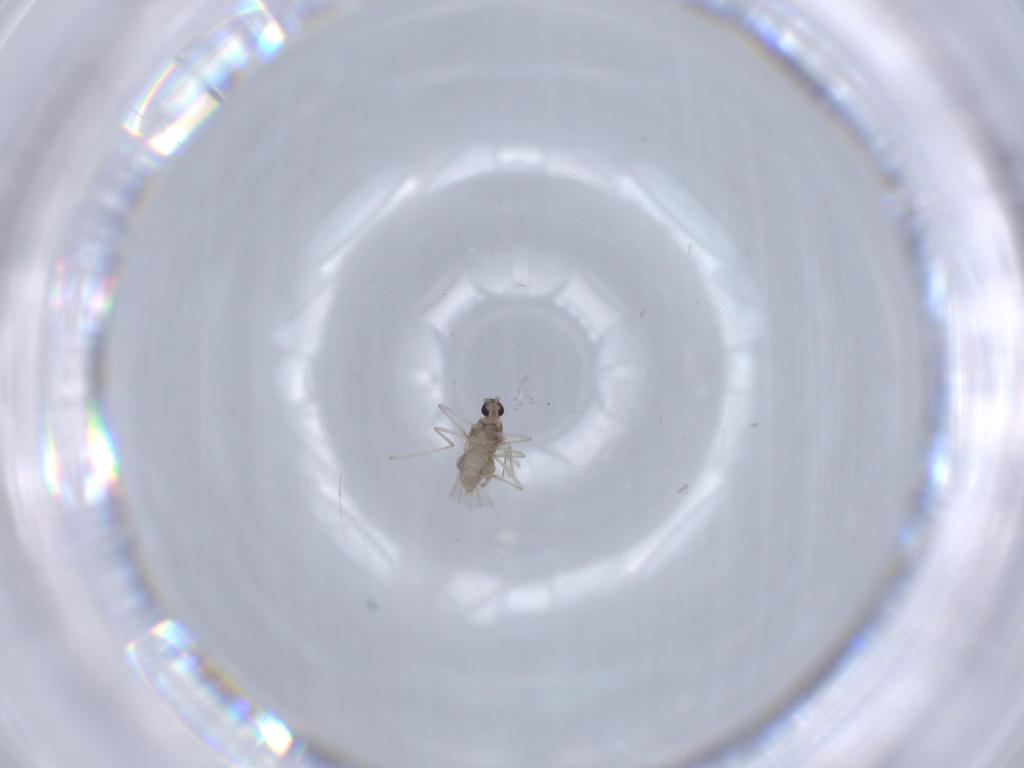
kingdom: Animalia
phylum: Arthropoda
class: Insecta
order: Diptera
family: Cecidomyiidae
